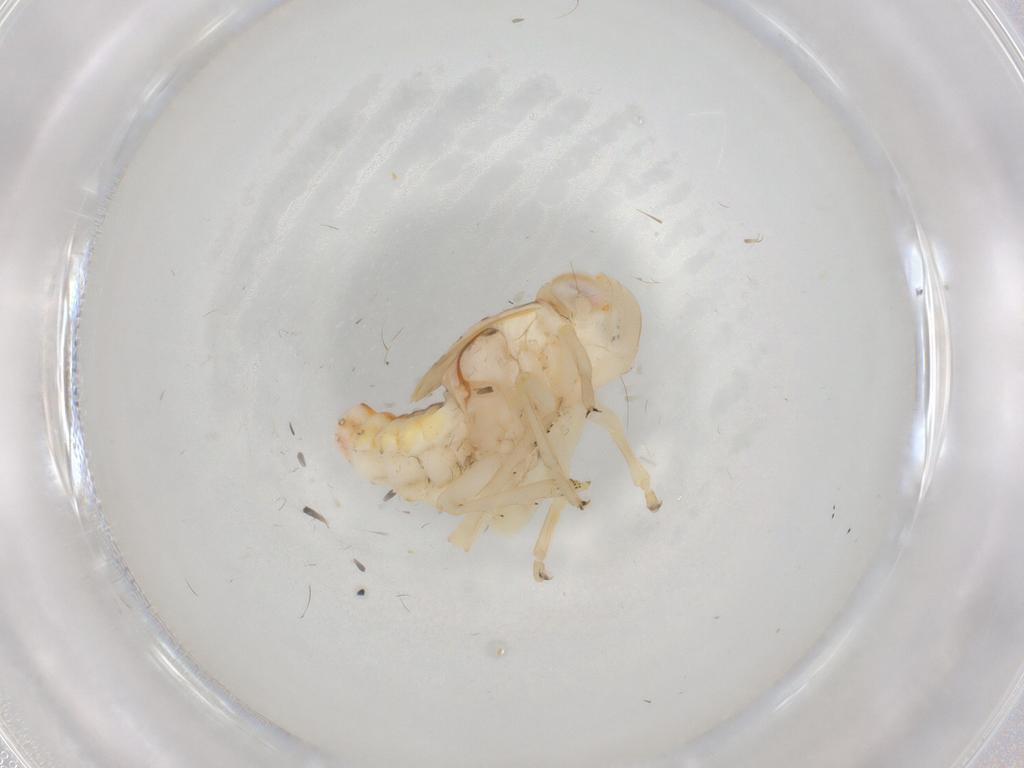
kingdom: Animalia
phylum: Arthropoda
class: Insecta
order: Hemiptera
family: Nogodinidae
